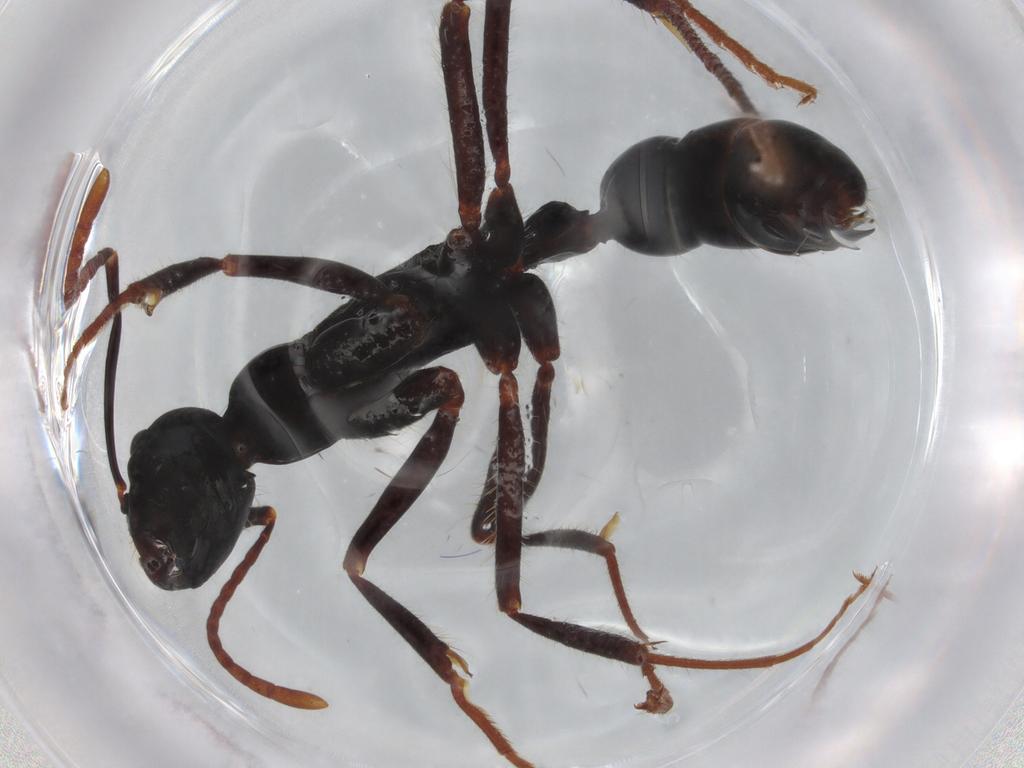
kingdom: Animalia
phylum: Arthropoda
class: Insecta
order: Hymenoptera
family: Formicidae
